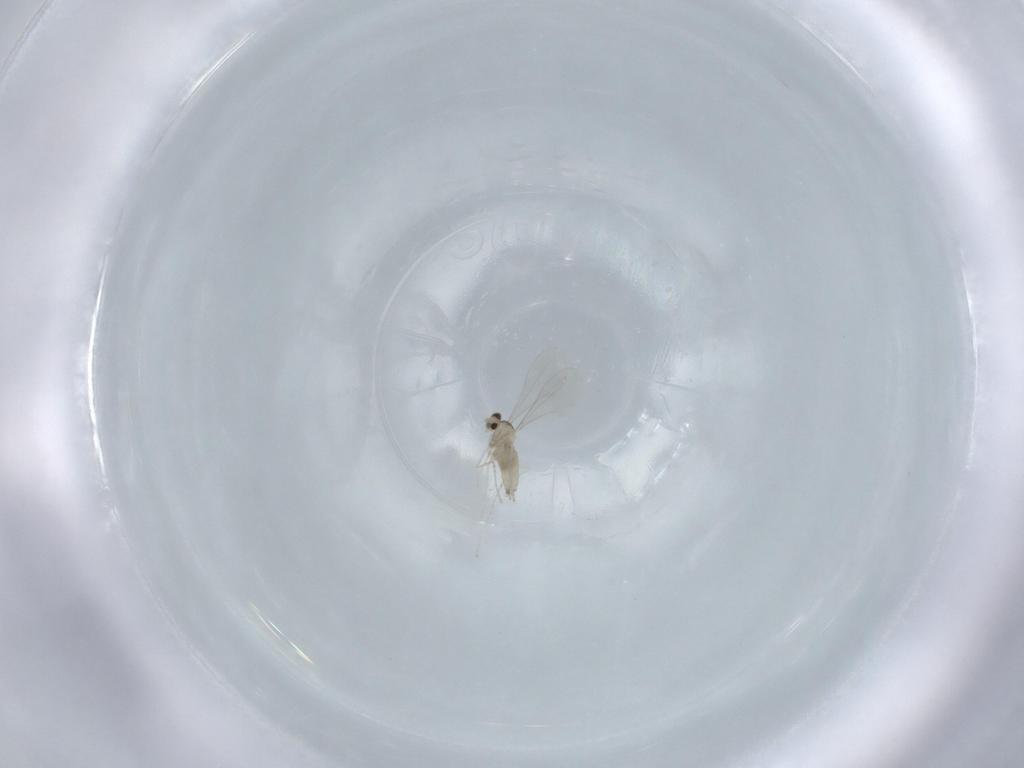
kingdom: Animalia
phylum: Arthropoda
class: Insecta
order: Diptera
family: Cecidomyiidae
